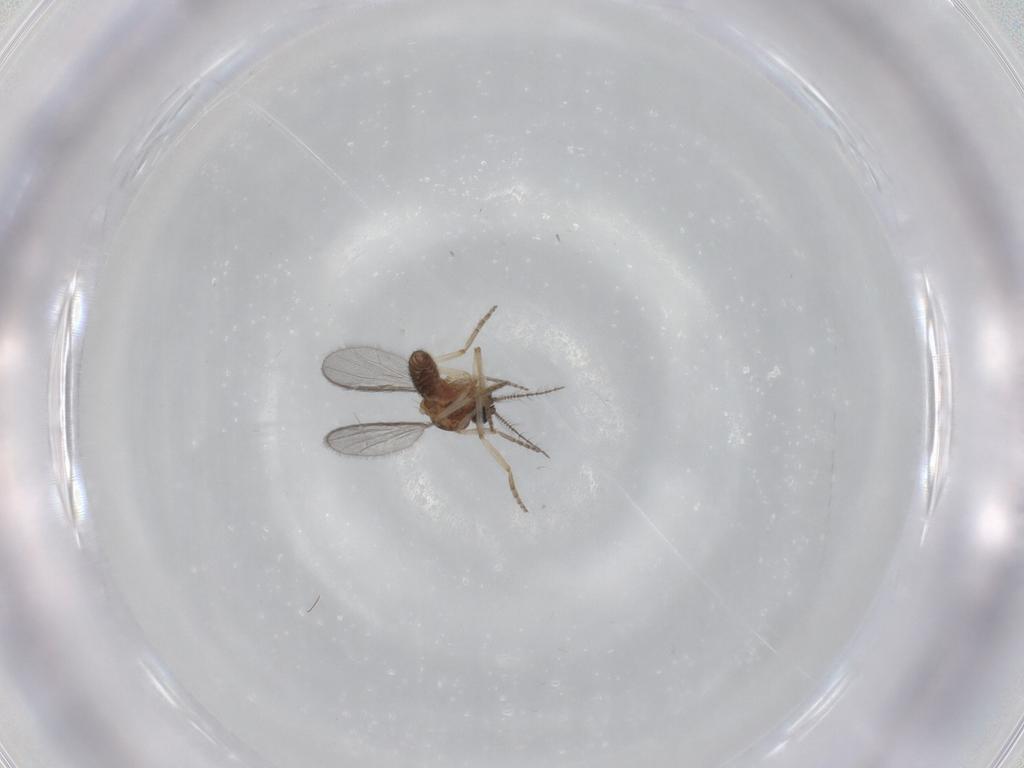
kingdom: Animalia
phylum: Arthropoda
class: Insecta
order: Diptera
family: Ceratopogonidae
